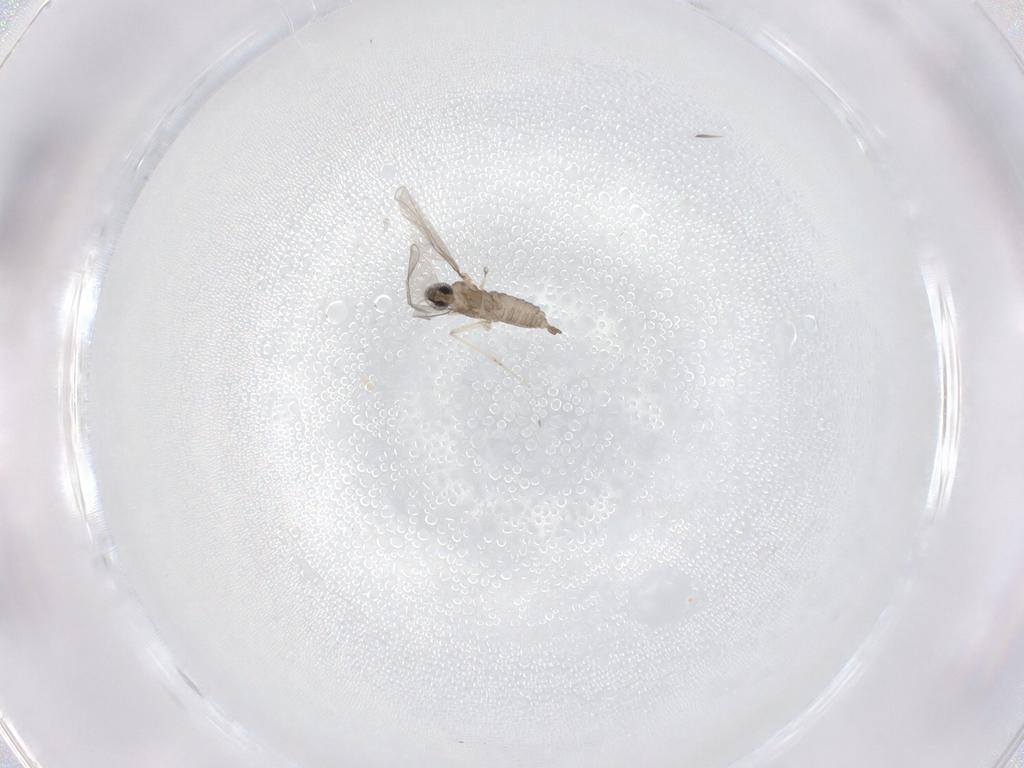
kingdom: Animalia
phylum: Arthropoda
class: Insecta
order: Diptera
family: Cecidomyiidae
